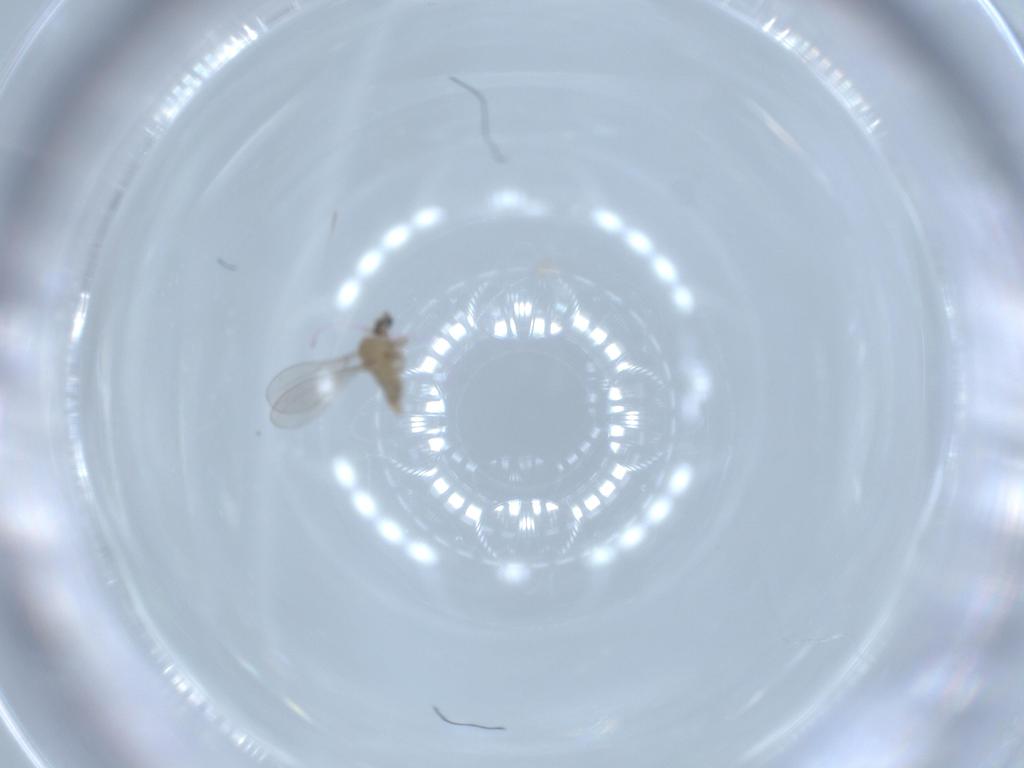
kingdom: Animalia
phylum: Arthropoda
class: Insecta
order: Diptera
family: Cecidomyiidae
